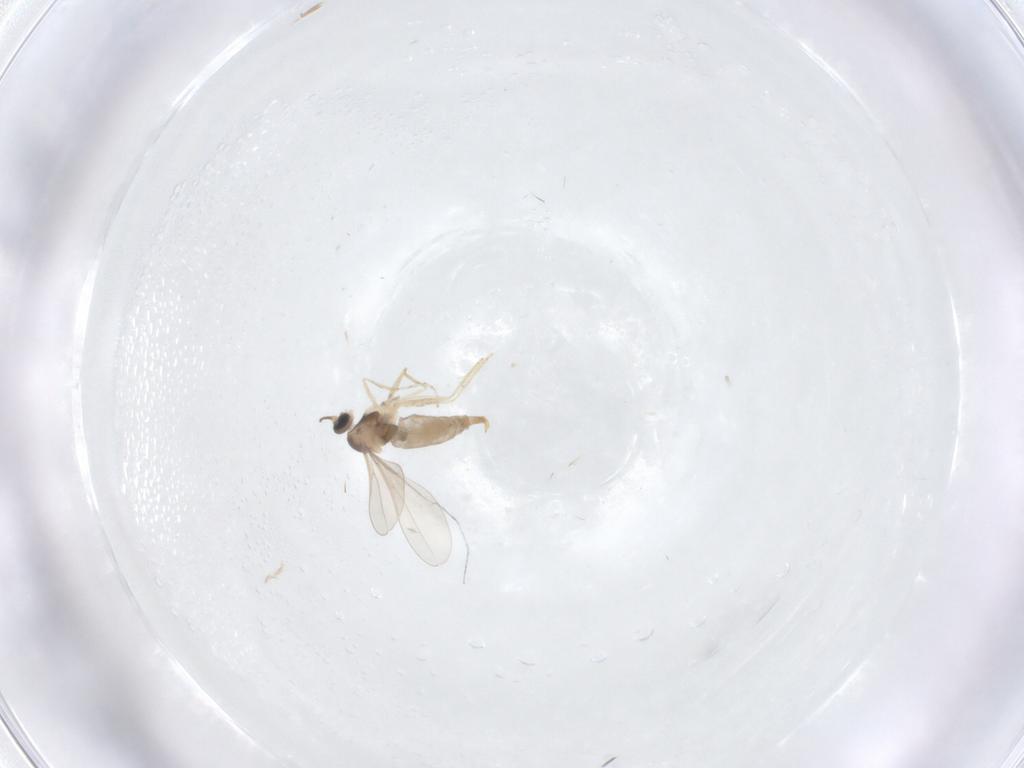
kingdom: Animalia
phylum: Arthropoda
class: Insecta
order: Diptera
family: Cecidomyiidae
